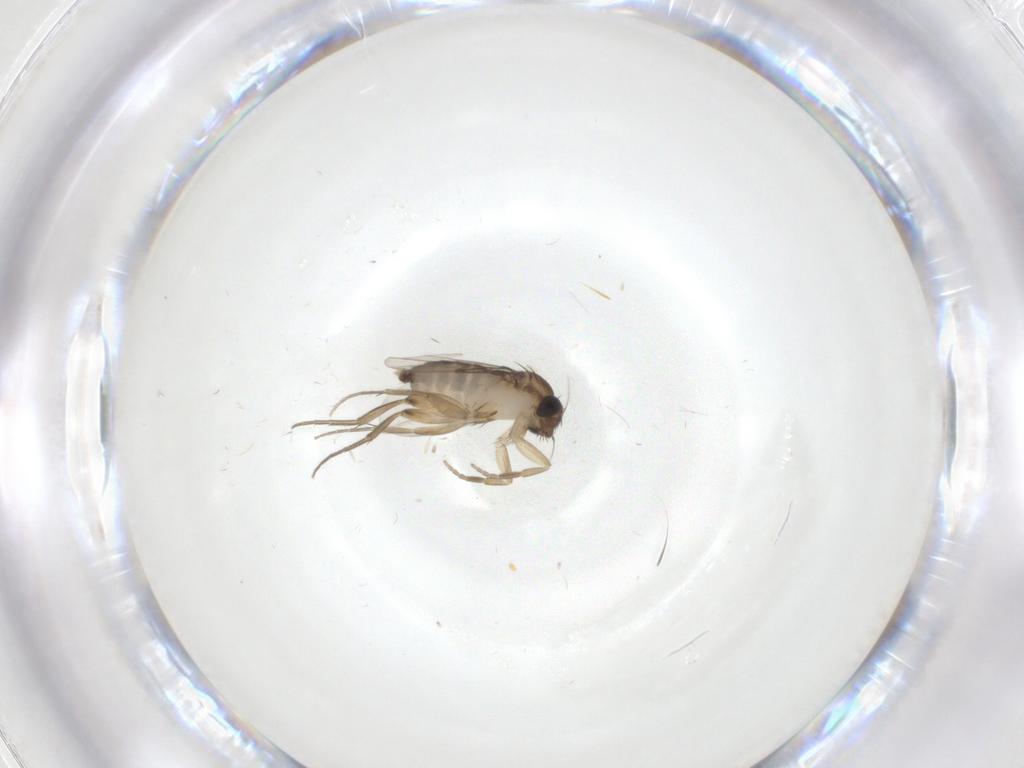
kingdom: Animalia
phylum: Arthropoda
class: Insecta
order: Diptera
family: Phoridae
